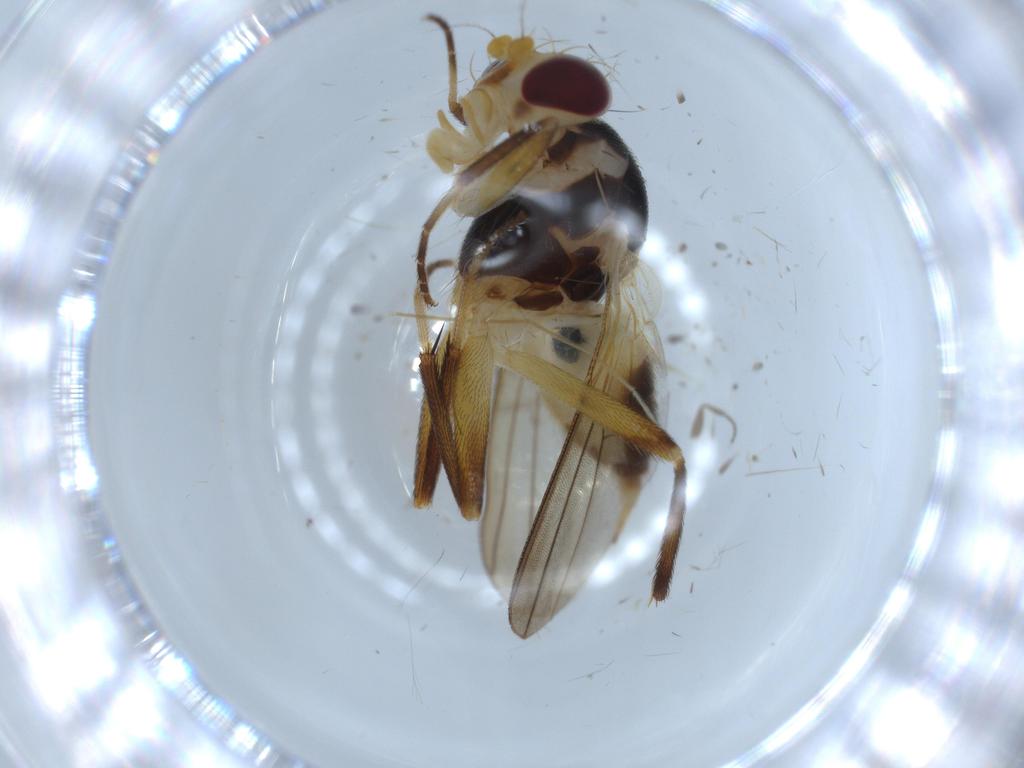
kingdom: Animalia
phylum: Arthropoda
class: Insecta
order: Diptera
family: Clusiidae
